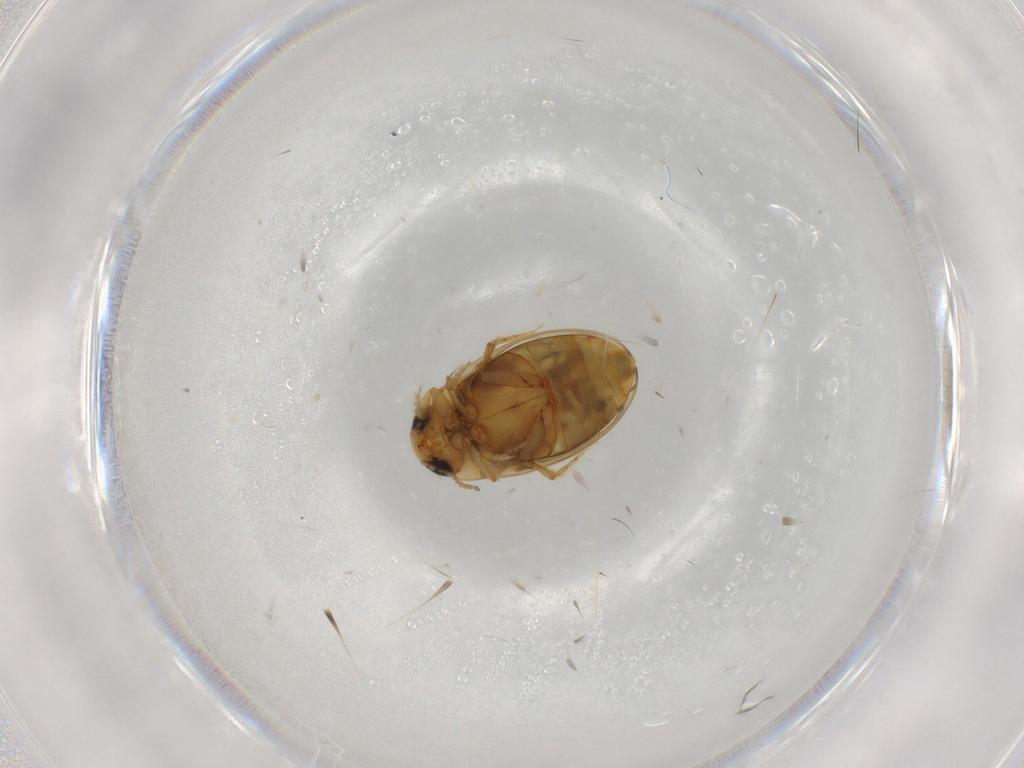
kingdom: Animalia
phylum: Arthropoda
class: Insecta
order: Coleoptera
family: Dytiscidae
